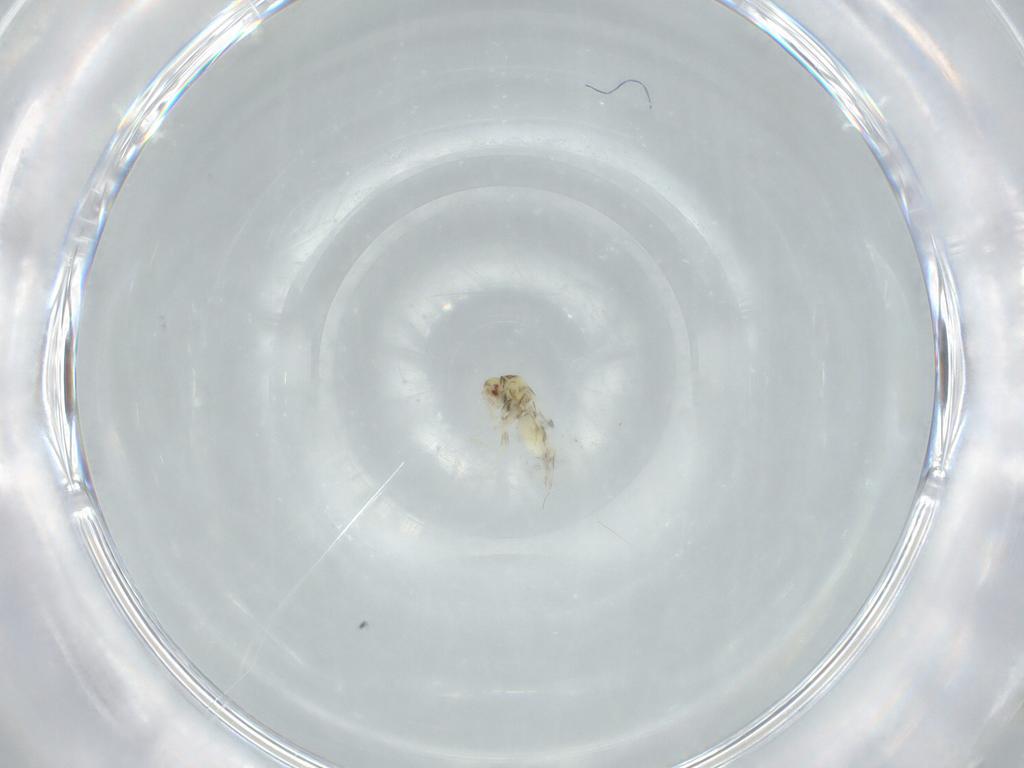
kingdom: Animalia
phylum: Arthropoda
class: Insecta
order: Hemiptera
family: Aleyrodidae
